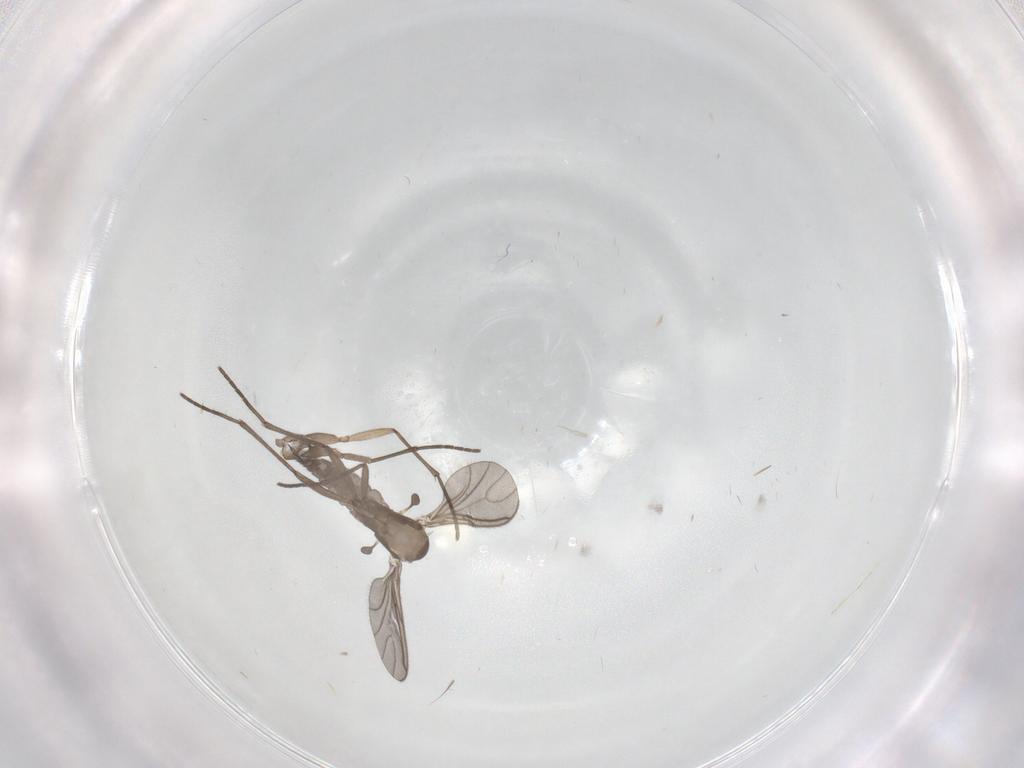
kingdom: Animalia
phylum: Arthropoda
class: Insecta
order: Diptera
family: Sciaridae
